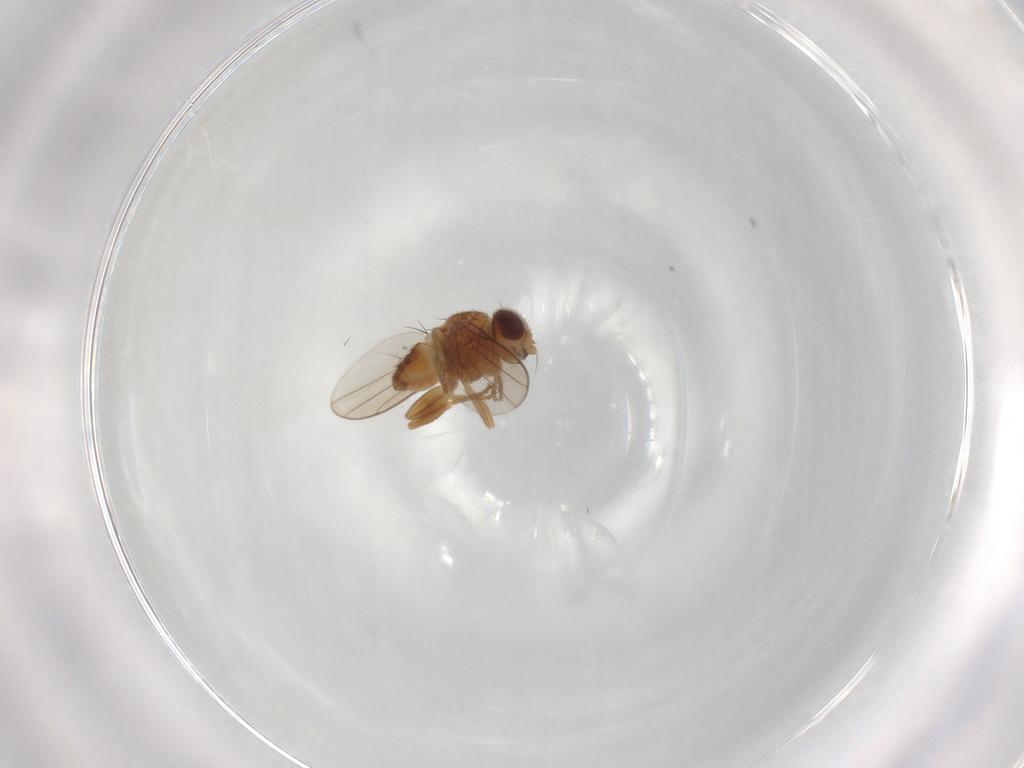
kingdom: Animalia
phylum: Arthropoda
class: Insecta
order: Diptera
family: Chloropidae
